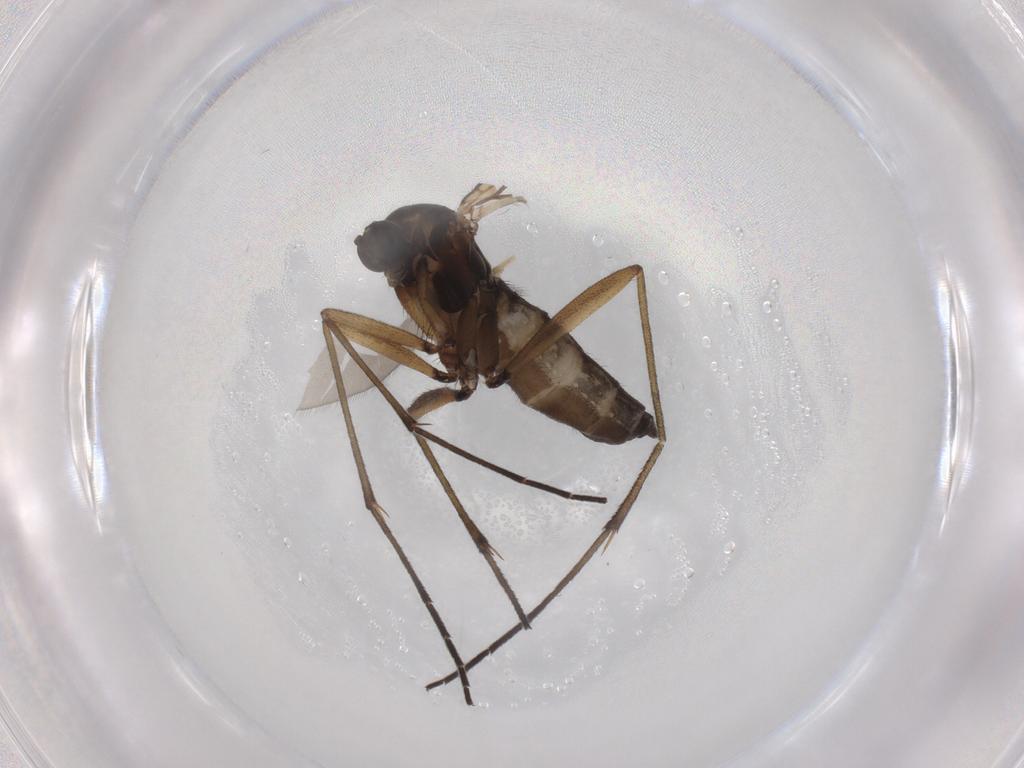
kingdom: Animalia
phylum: Arthropoda
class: Insecta
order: Diptera
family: Sciaridae
